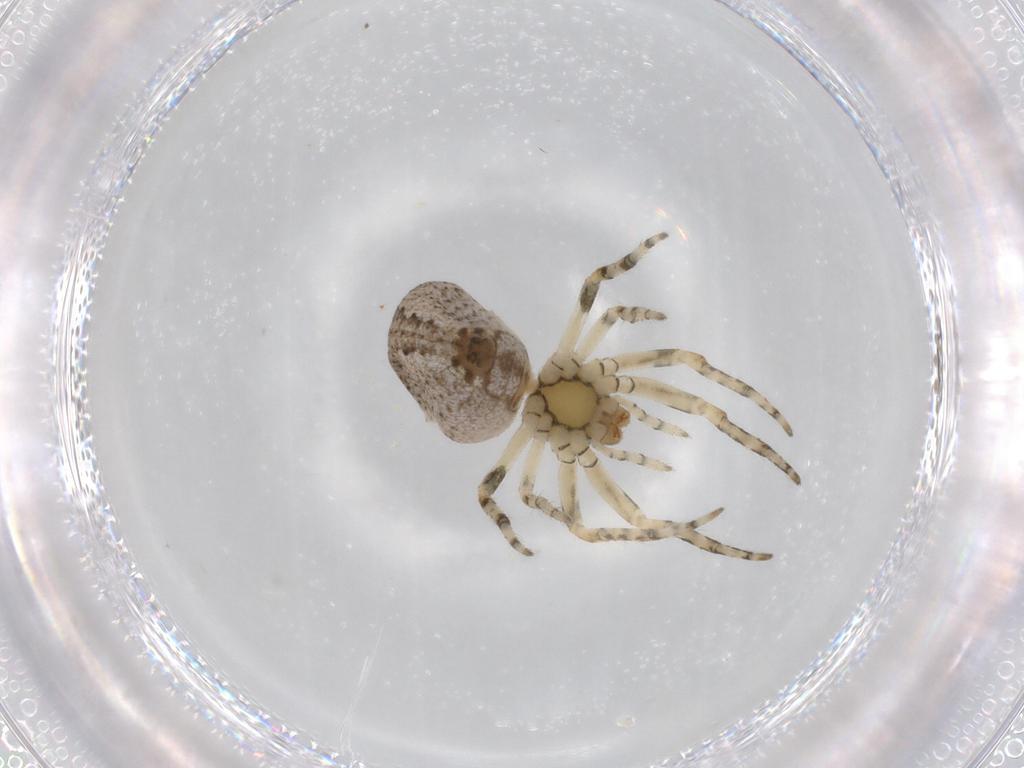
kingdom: Animalia
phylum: Arthropoda
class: Arachnida
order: Araneae
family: Araneidae
